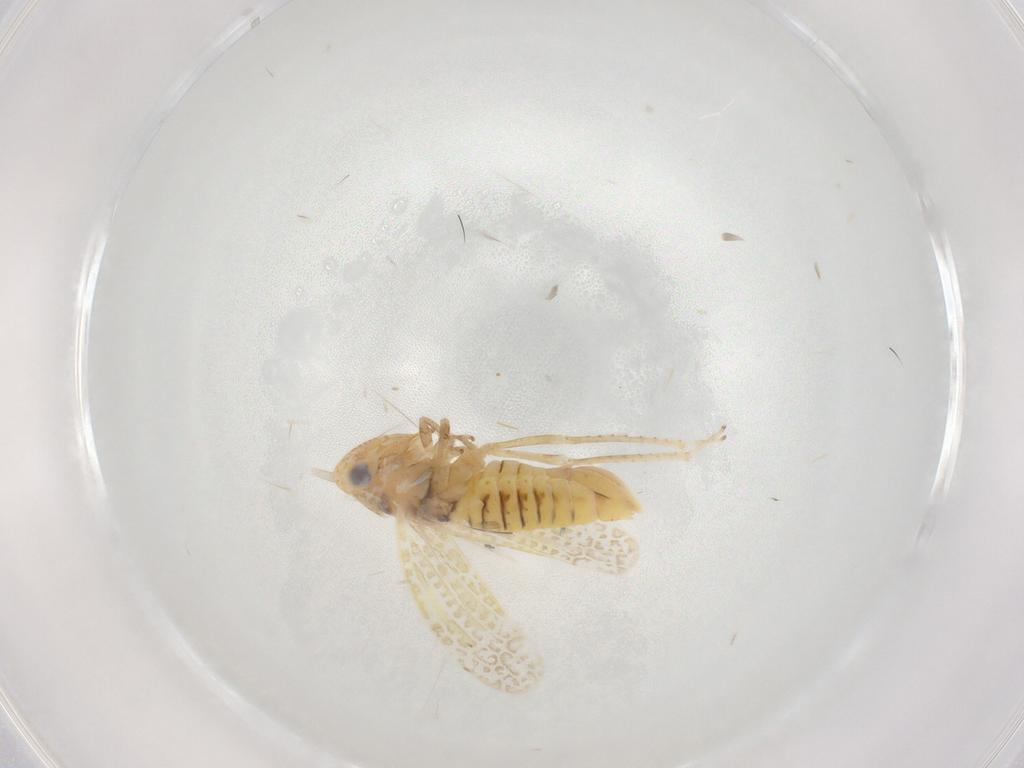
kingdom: Animalia
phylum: Arthropoda
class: Insecta
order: Hemiptera
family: Cicadellidae
